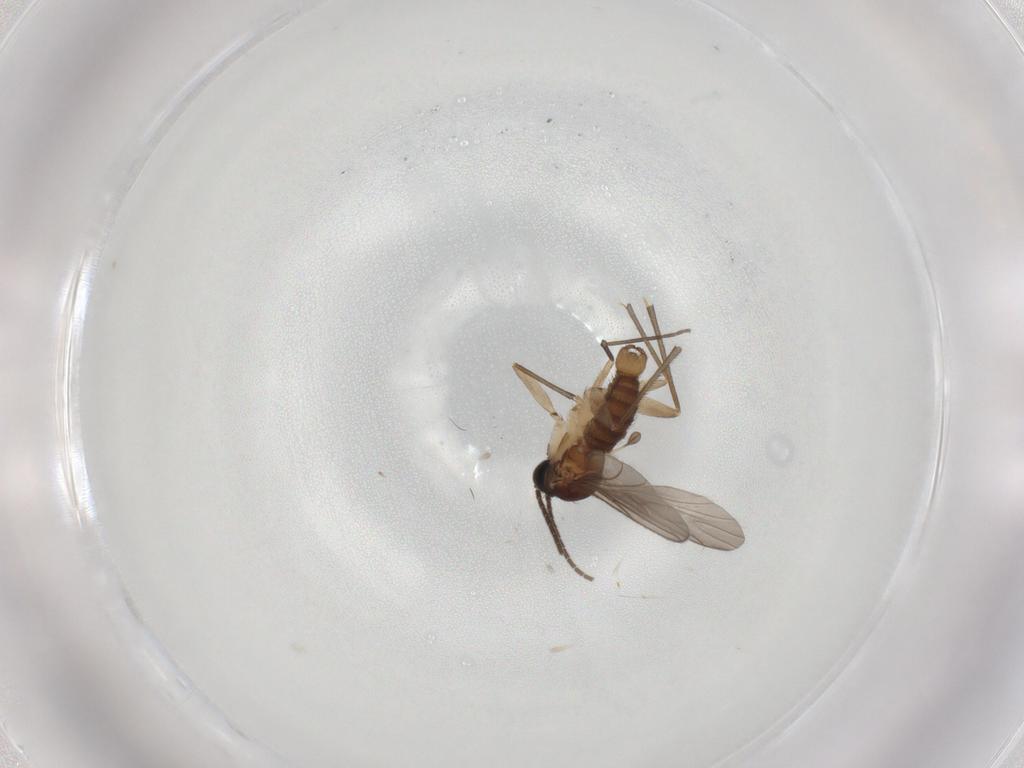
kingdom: Animalia
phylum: Arthropoda
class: Insecta
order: Diptera
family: Sciaridae
